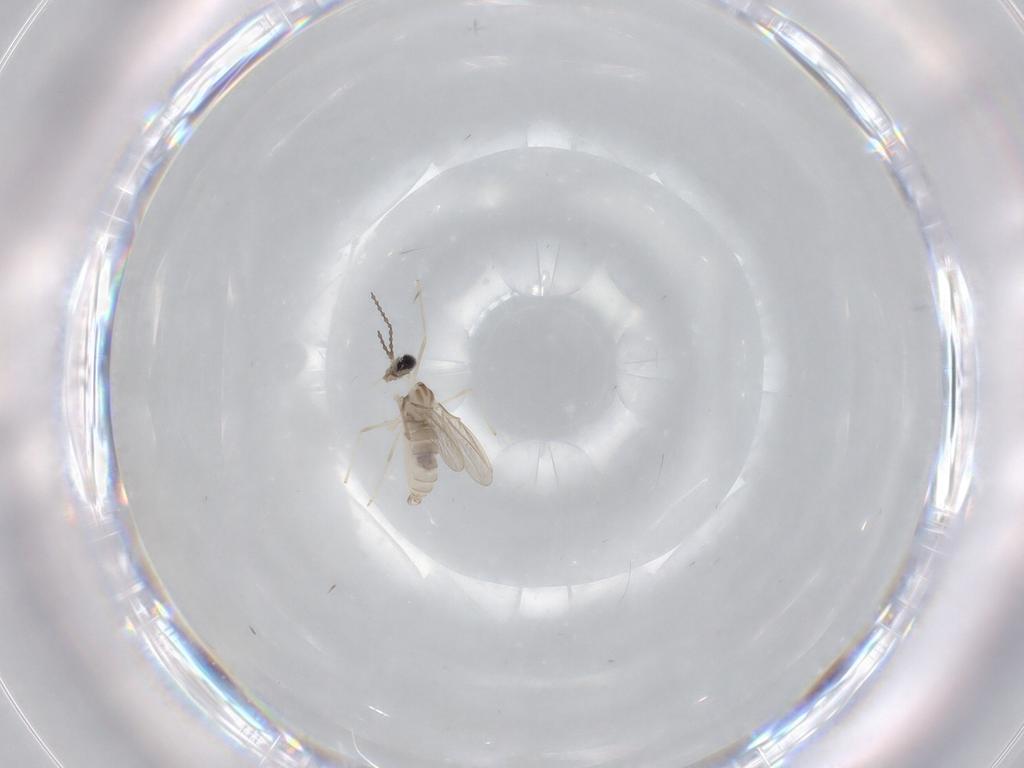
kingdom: Animalia
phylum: Arthropoda
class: Insecta
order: Diptera
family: Cecidomyiidae
